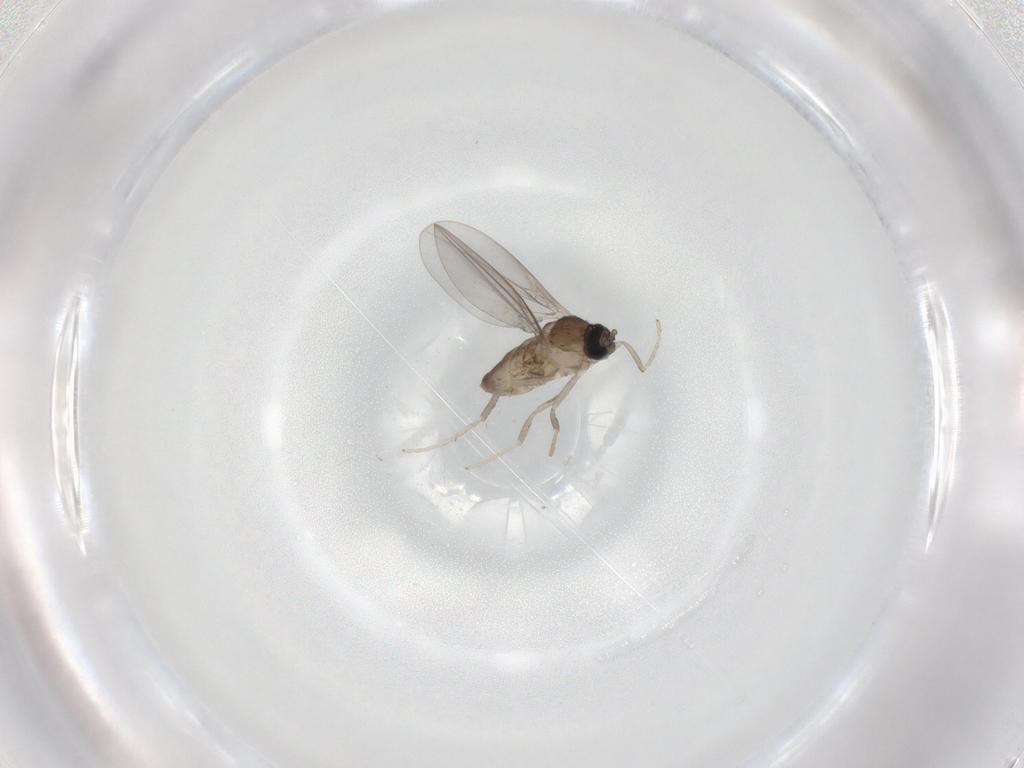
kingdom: Animalia
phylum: Arthropoda
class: Insecta
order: Diptera
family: Cecidomyiidae
